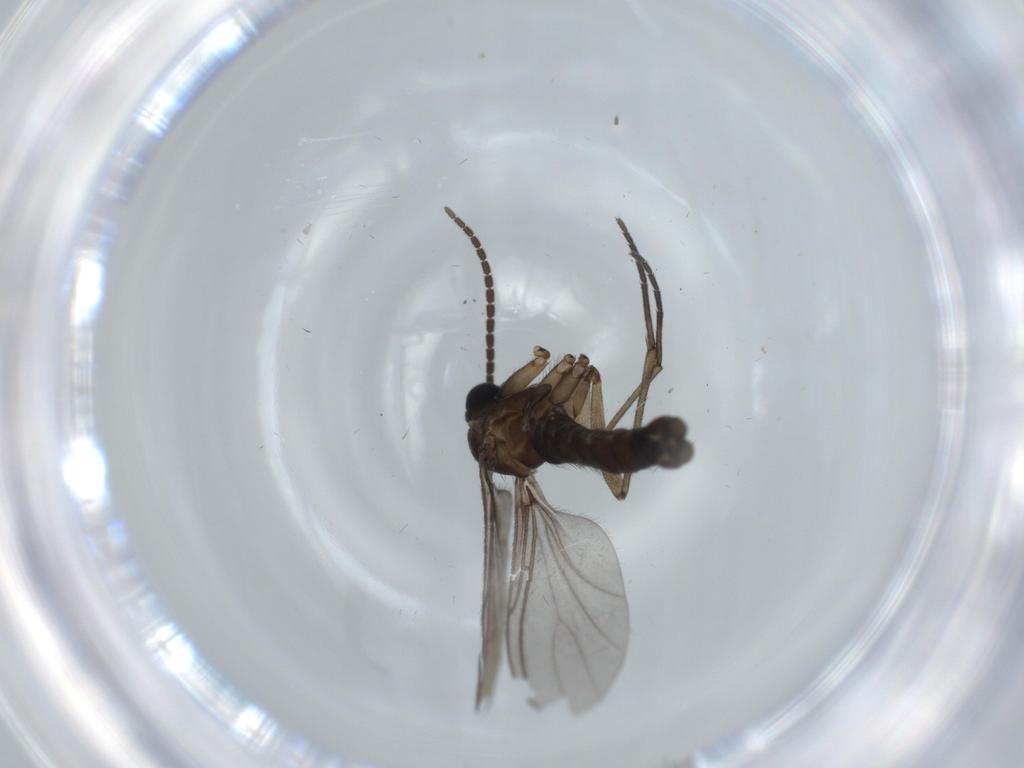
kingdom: Animalia
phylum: Arthropoda
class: Insecta
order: Diptera
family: Sciaridae
